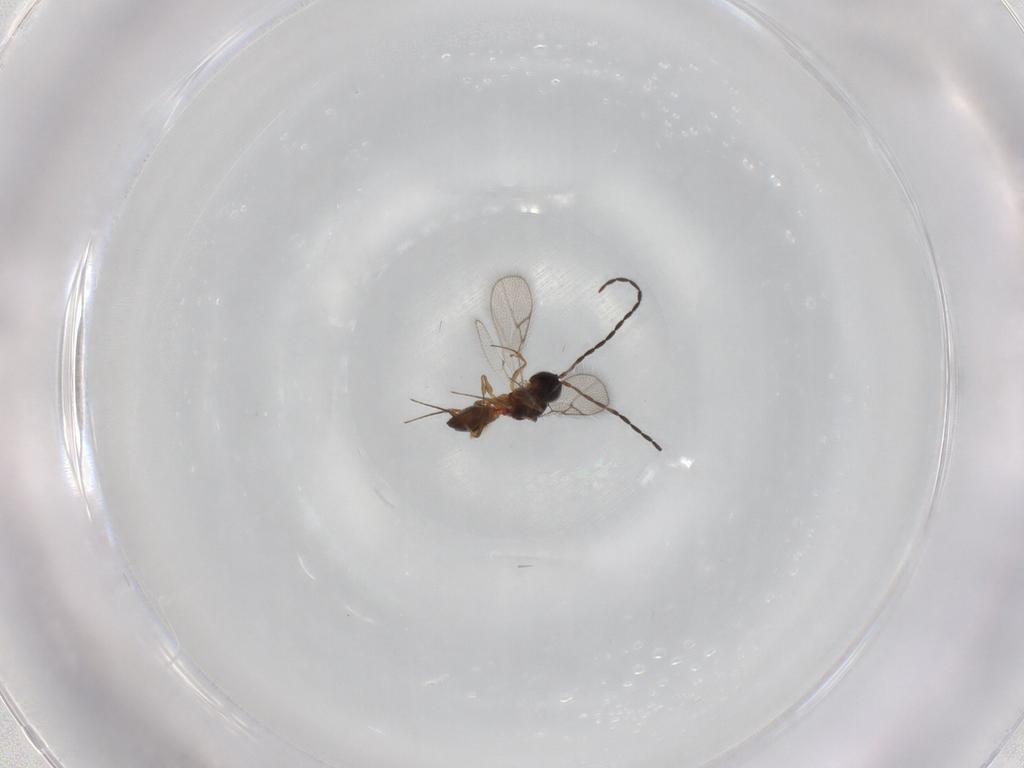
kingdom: Animalia
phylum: Arthropoda
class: Insecta
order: Hymenoptera
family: Figitidae
